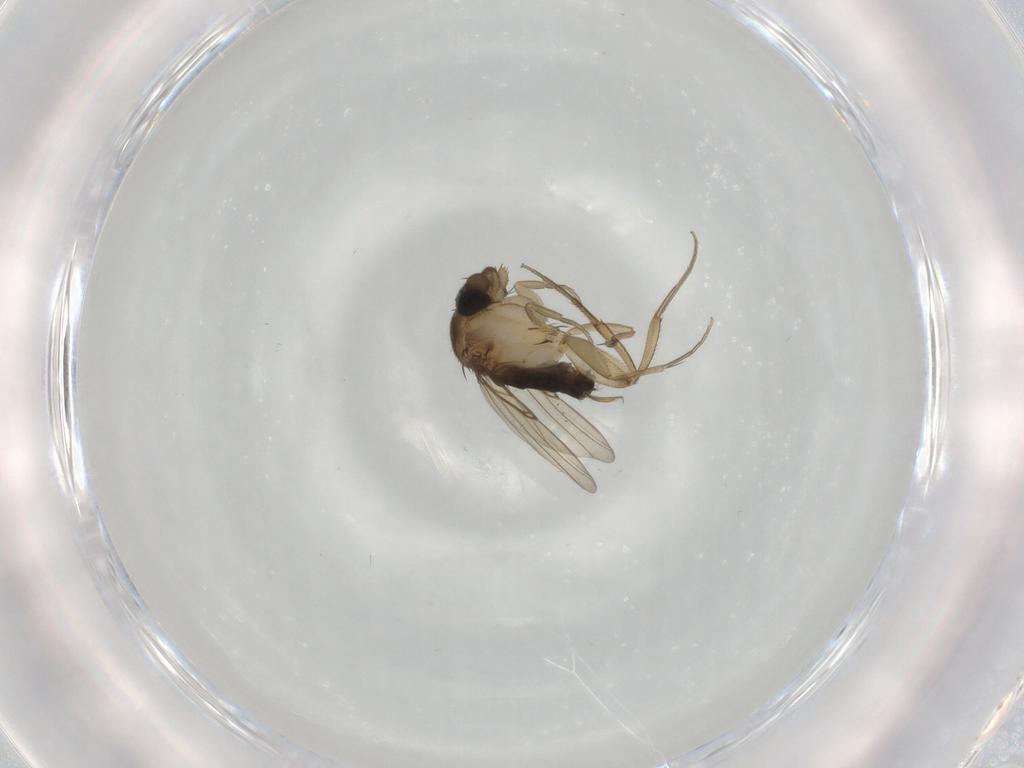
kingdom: Animalia
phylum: Arthropoda
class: Insecta
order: Diptera
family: Phoridae
